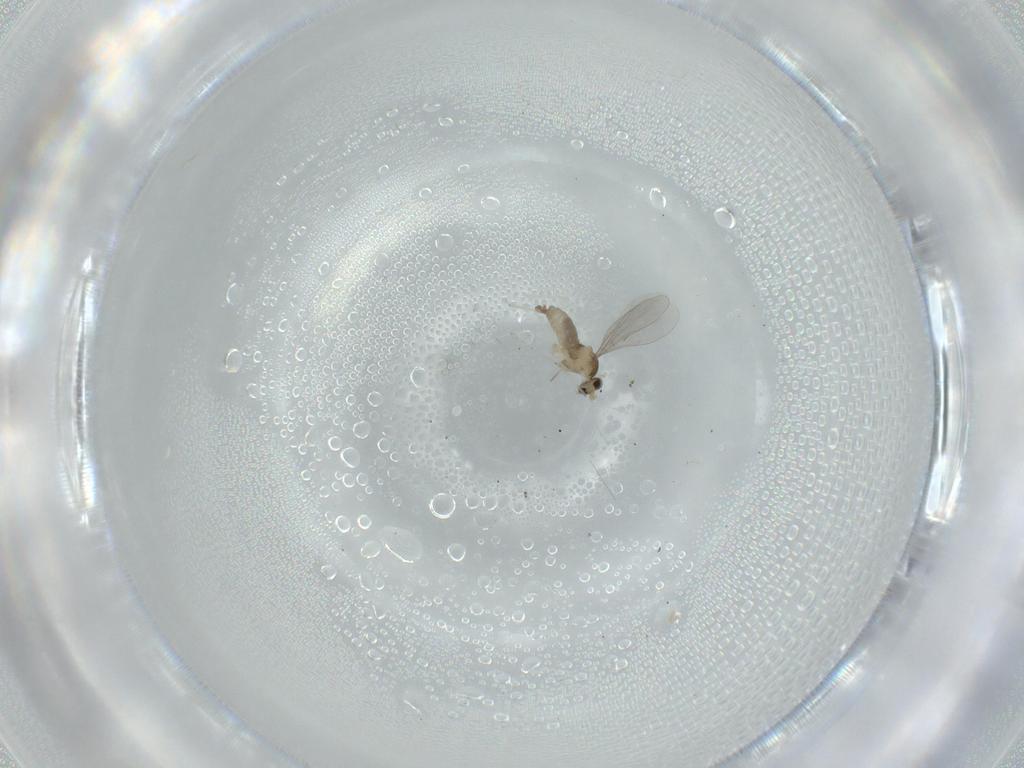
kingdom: Animalia
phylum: Arthropoda
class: Insecta
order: Diptera
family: Cecidomyiidae
